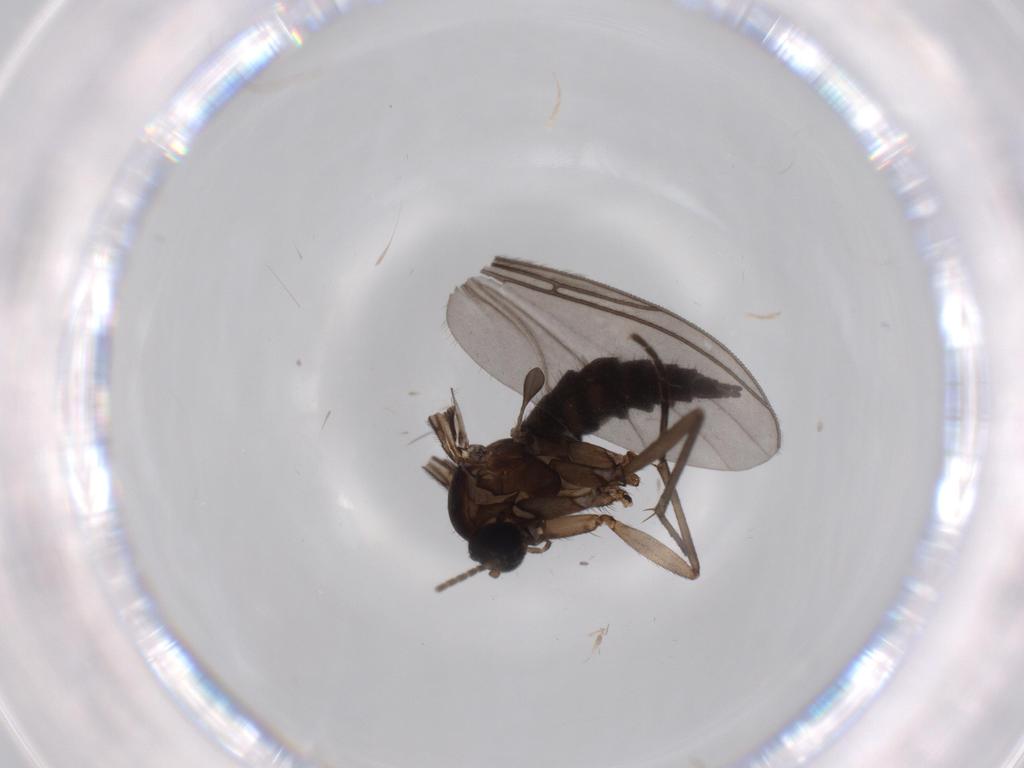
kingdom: Animalia
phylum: Arthropoda
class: Insecta
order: Diptera
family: Sciaridae
